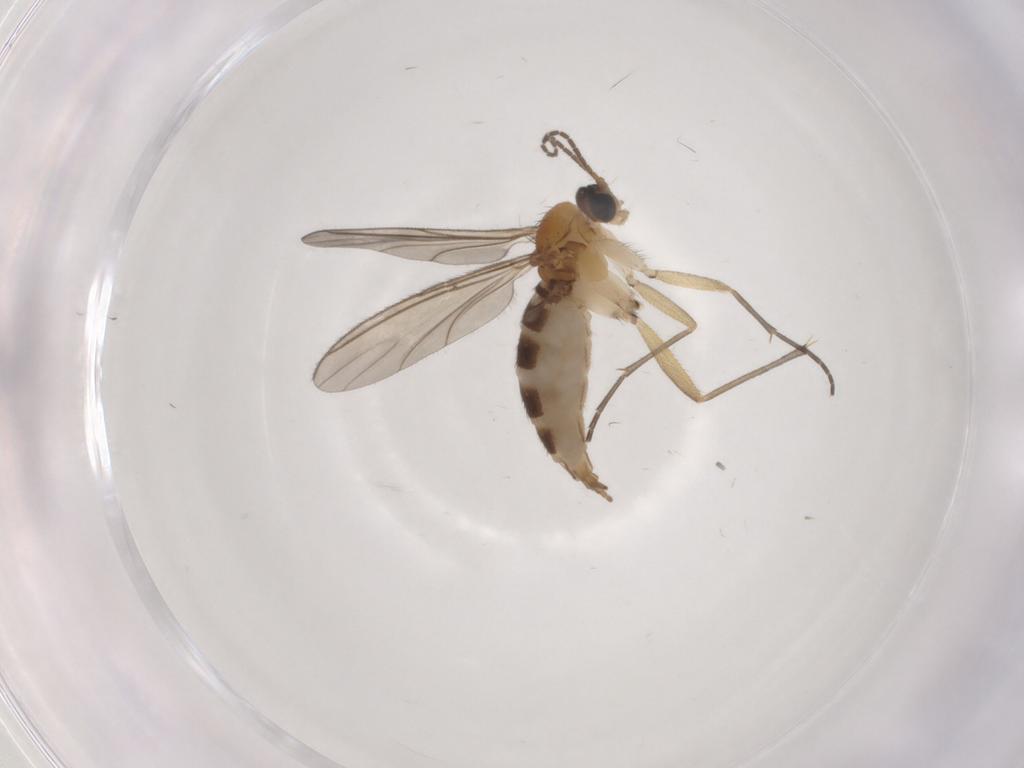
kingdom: Animalia
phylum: Arthropoda
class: Insecta
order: Diptera
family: Sciaridae
